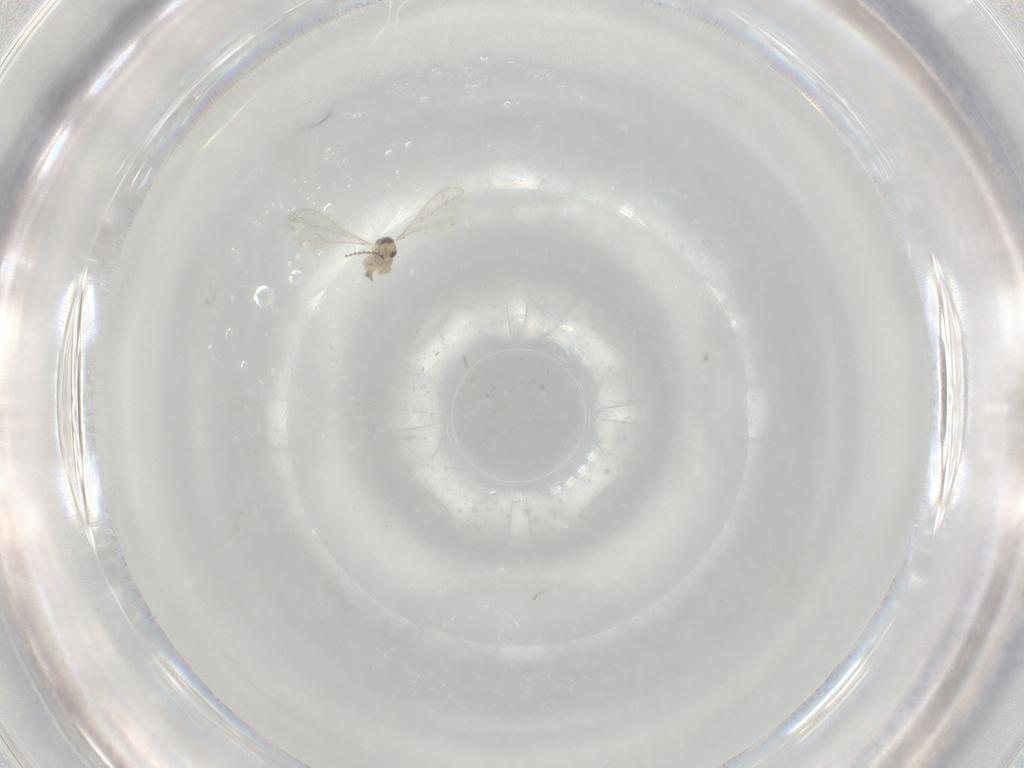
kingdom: Animalia
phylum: Arthropoda
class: Insecta
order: Diptera
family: Cecidomyiidae
